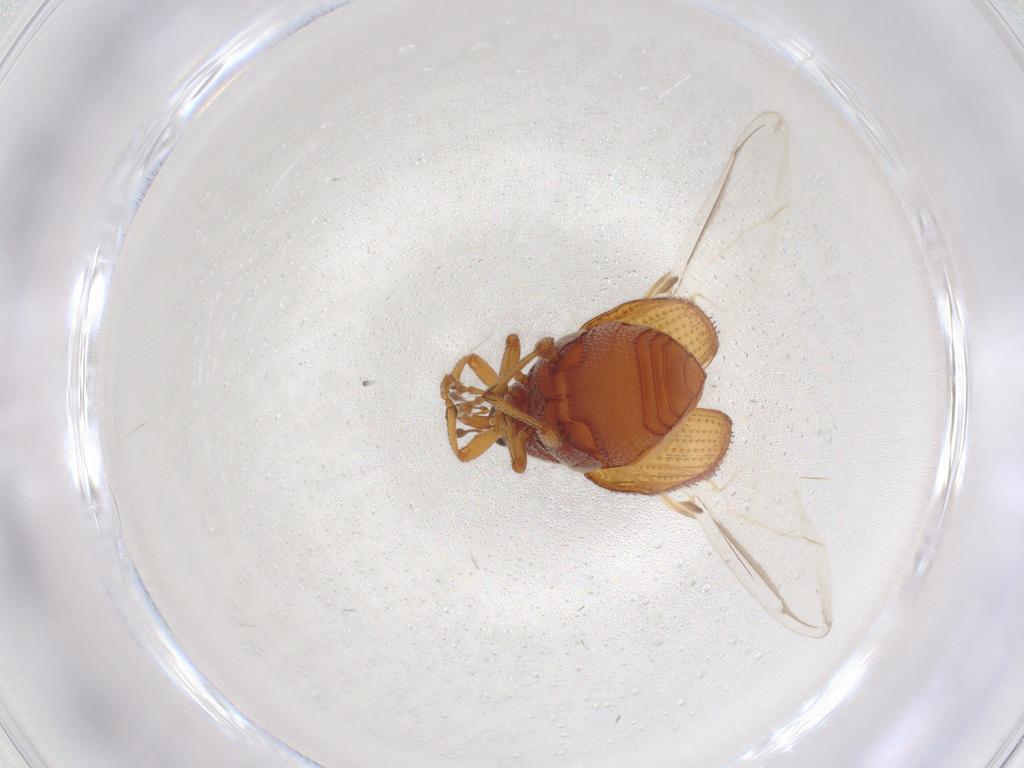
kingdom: Animalia
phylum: Arthropoda
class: Insecta
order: Coleoptera
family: Curculionidae
